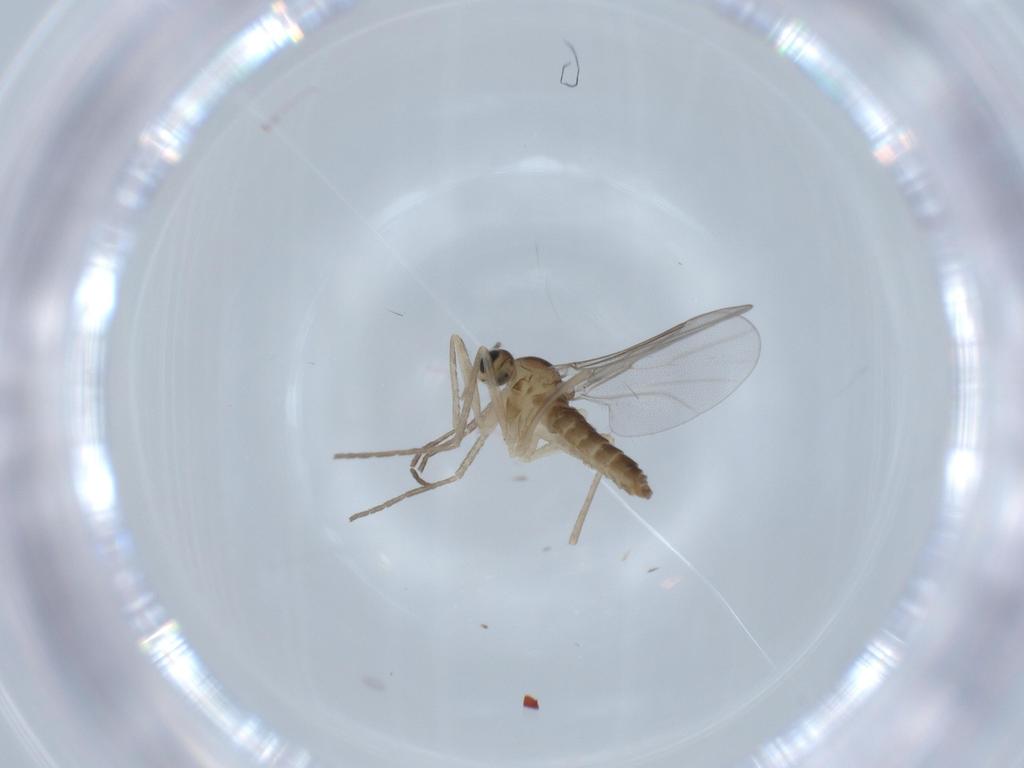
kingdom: Animalia
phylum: Arthropoda
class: Insecta
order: Diptera
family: Cecidomyiidae
